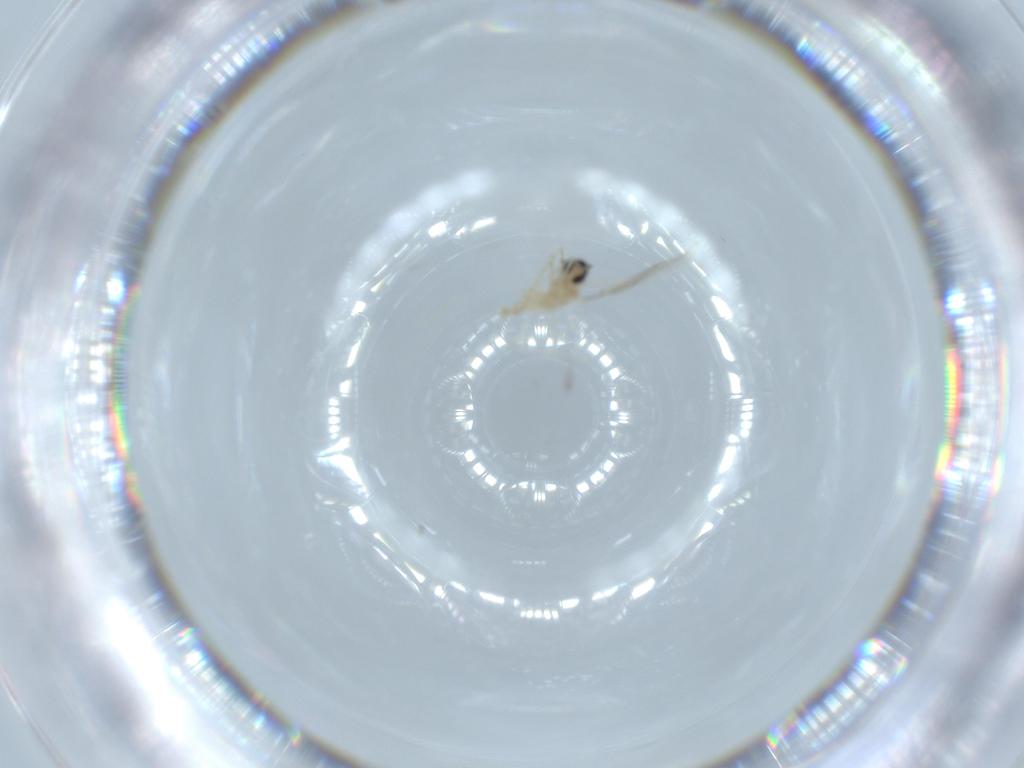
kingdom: Animalia
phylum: Arthropoda
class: Insecta
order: Diptera
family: Cecidomyiidae
